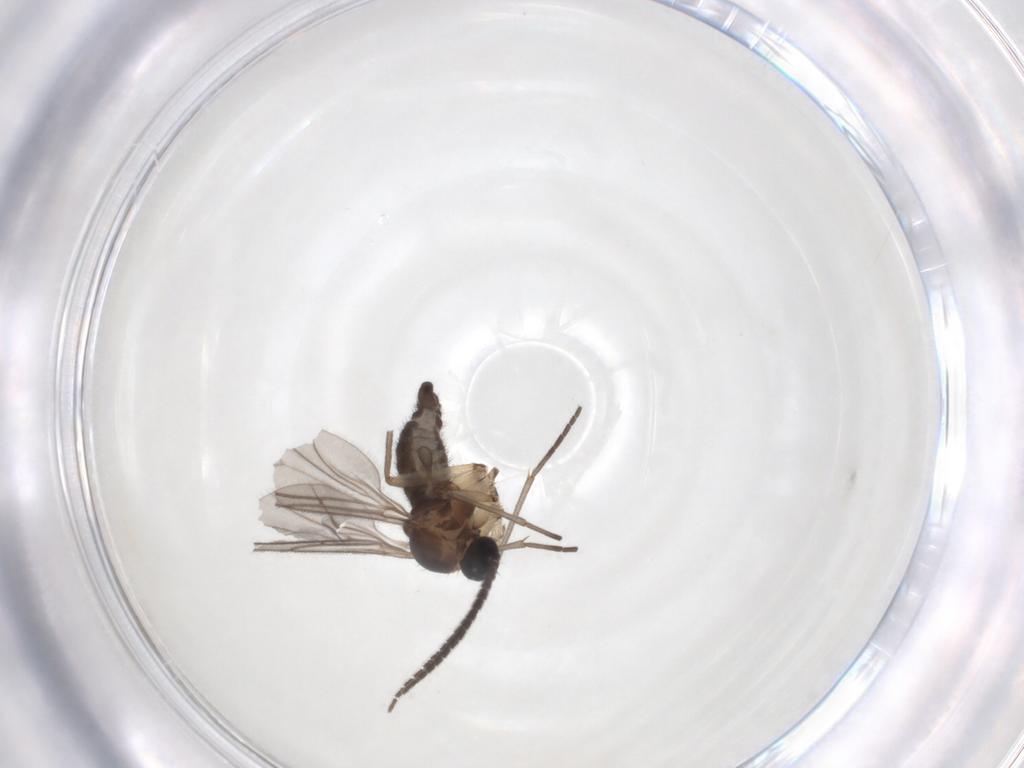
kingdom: Animalia
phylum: Arthropoda
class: Insecta
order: Diptera
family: Sciaridae
